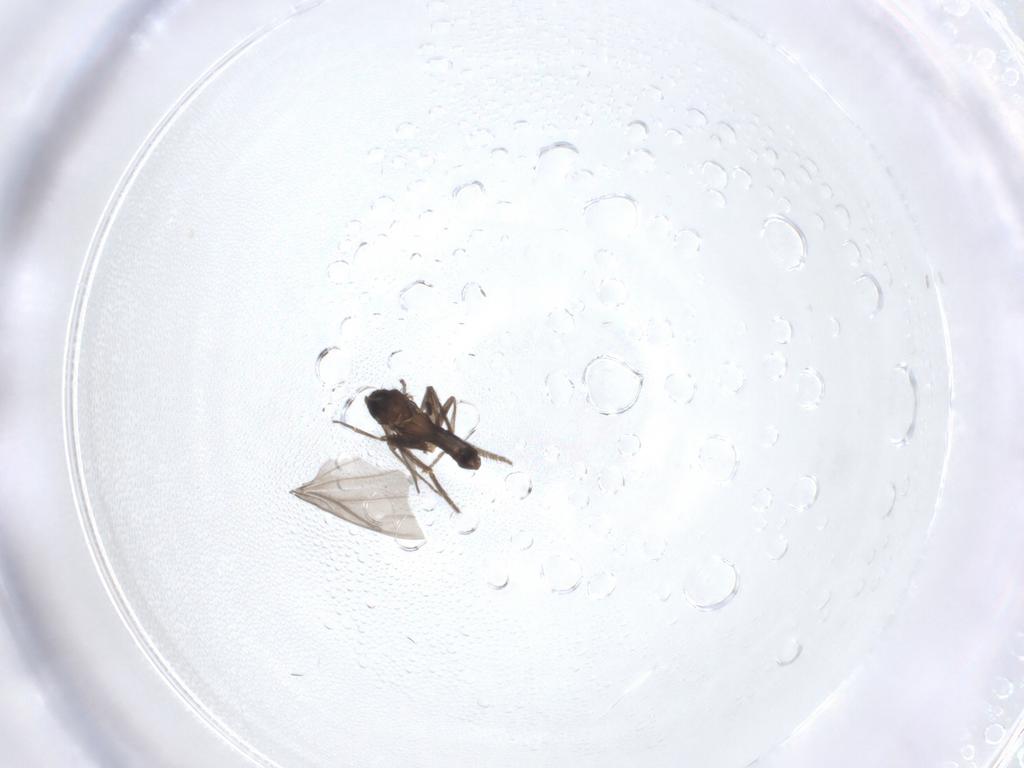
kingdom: Animalia
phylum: Arthropoda
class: Insecta
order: Diptera
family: Phoridae
